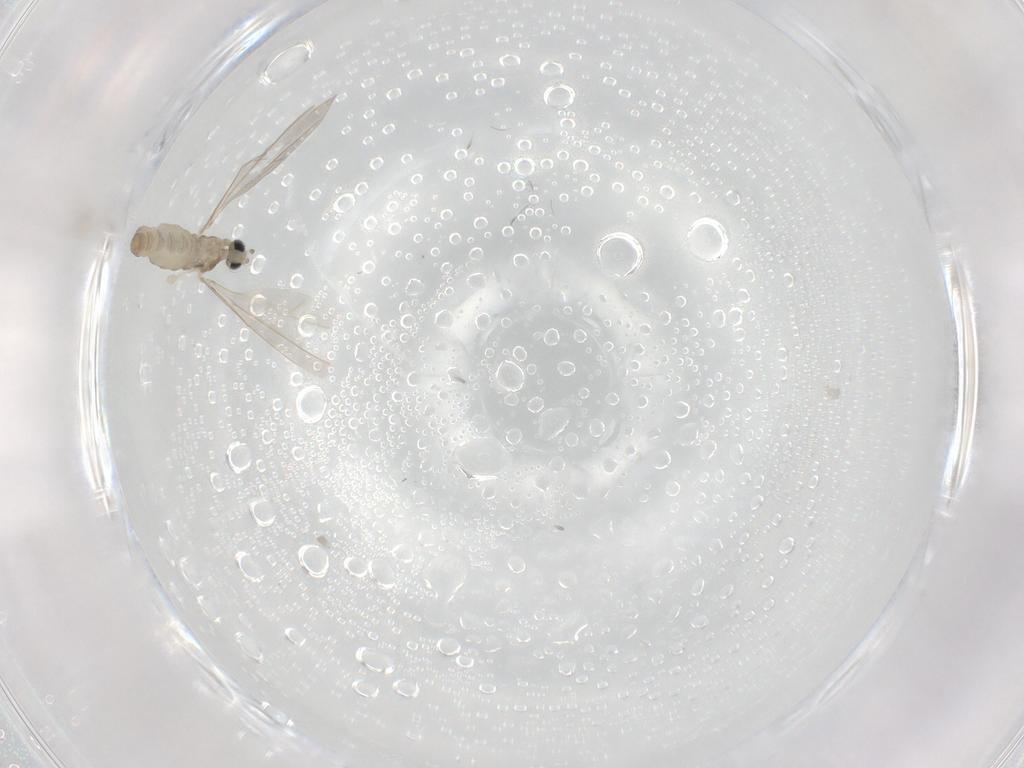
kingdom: Animalia
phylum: Arthropoda
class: Insecta
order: Diptera
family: Cecidomyiidae
